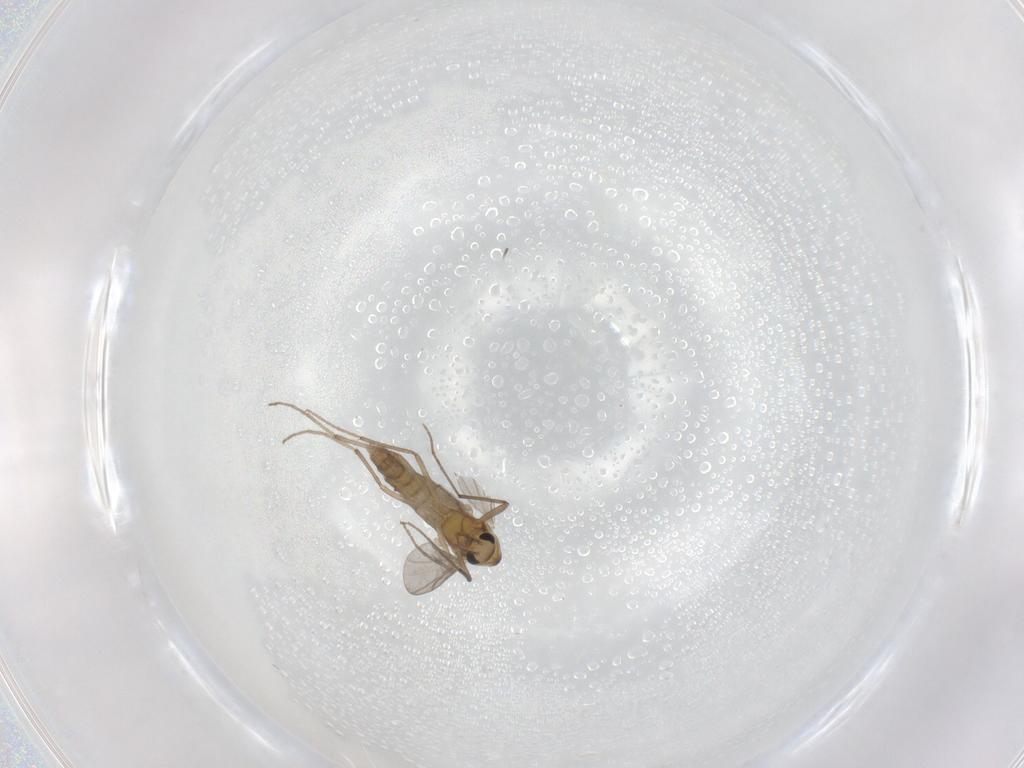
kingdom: Animalia
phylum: Arthropoda
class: Insecta
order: Diptera
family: Chironomidae
